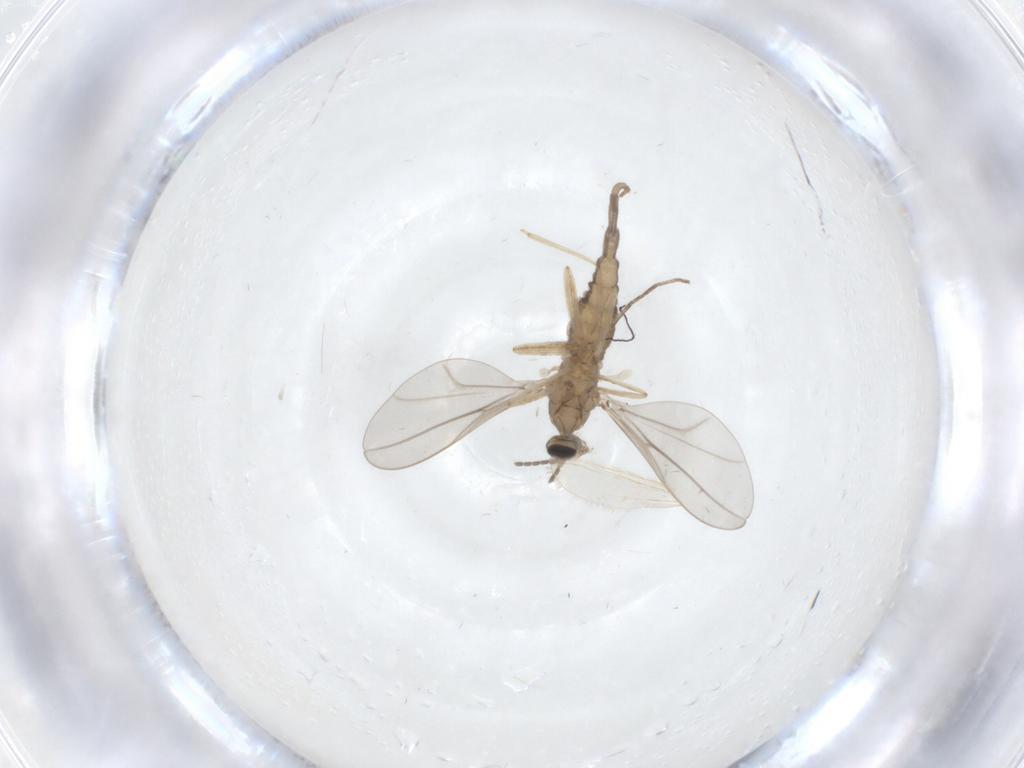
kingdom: Animalia
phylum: Arthropoda
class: Insecta
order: Diptera
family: Cecidomyiidae
